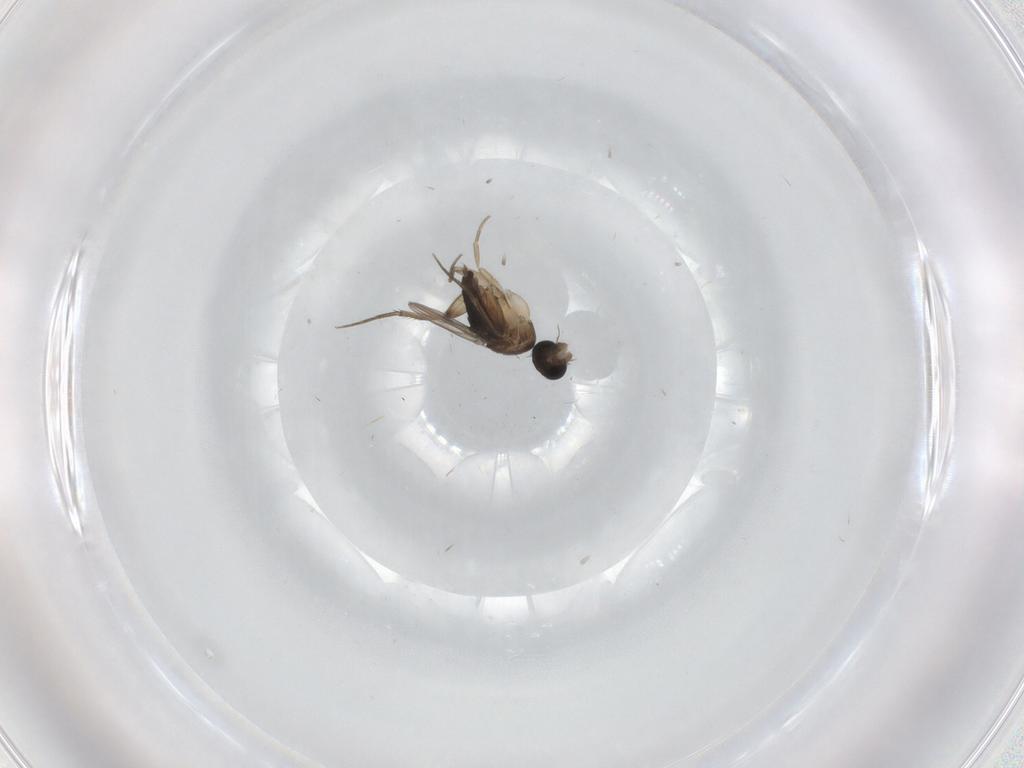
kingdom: Animalia
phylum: Arthropoda
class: Insecta
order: Diptera
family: Phoridae
